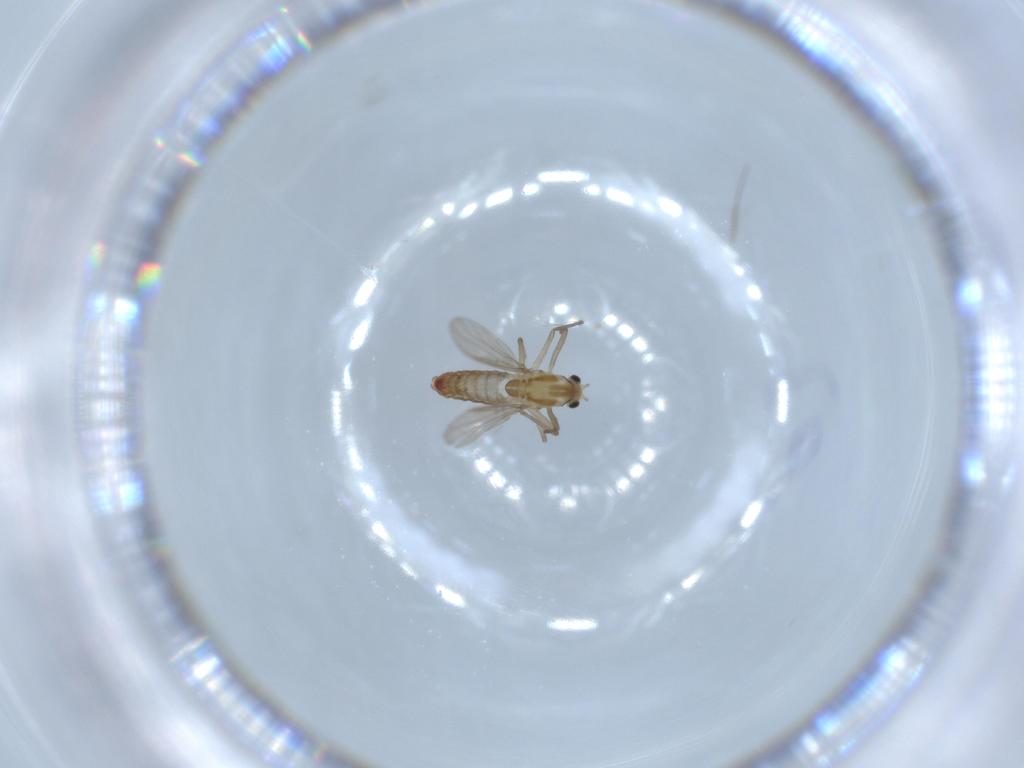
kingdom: Animalia
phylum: Arthropoda
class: Insecta
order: Diptera
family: Chironomidae
